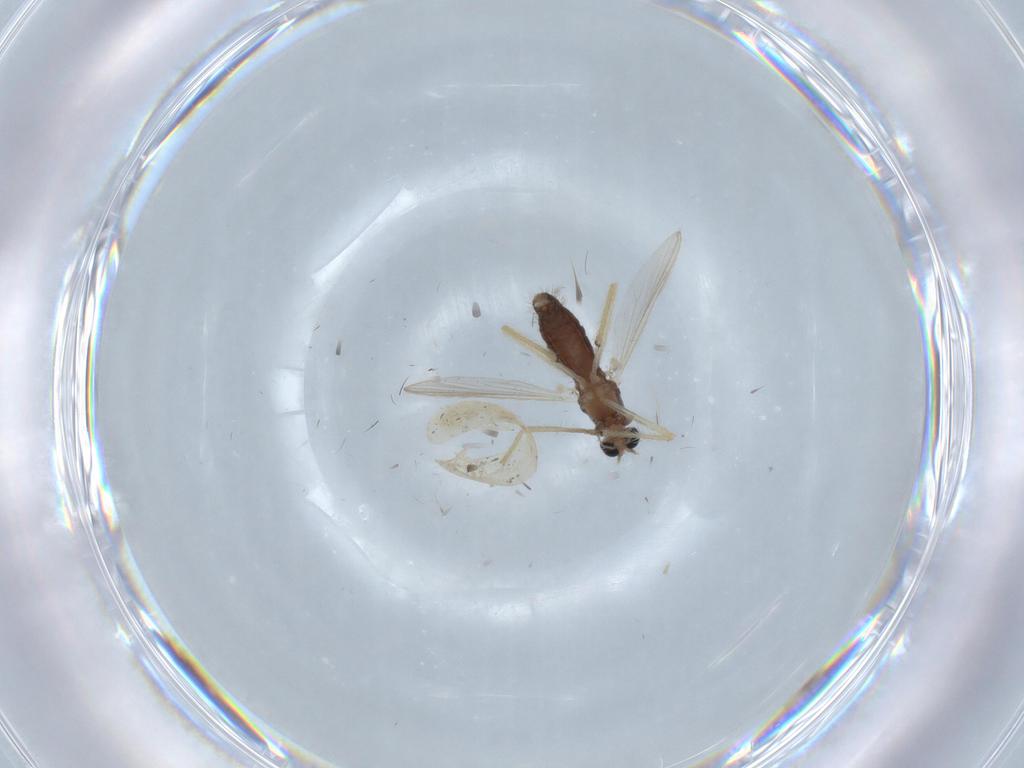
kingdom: Animalia
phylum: Arthropoda
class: Insecta
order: Diptera
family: Chironomidae
